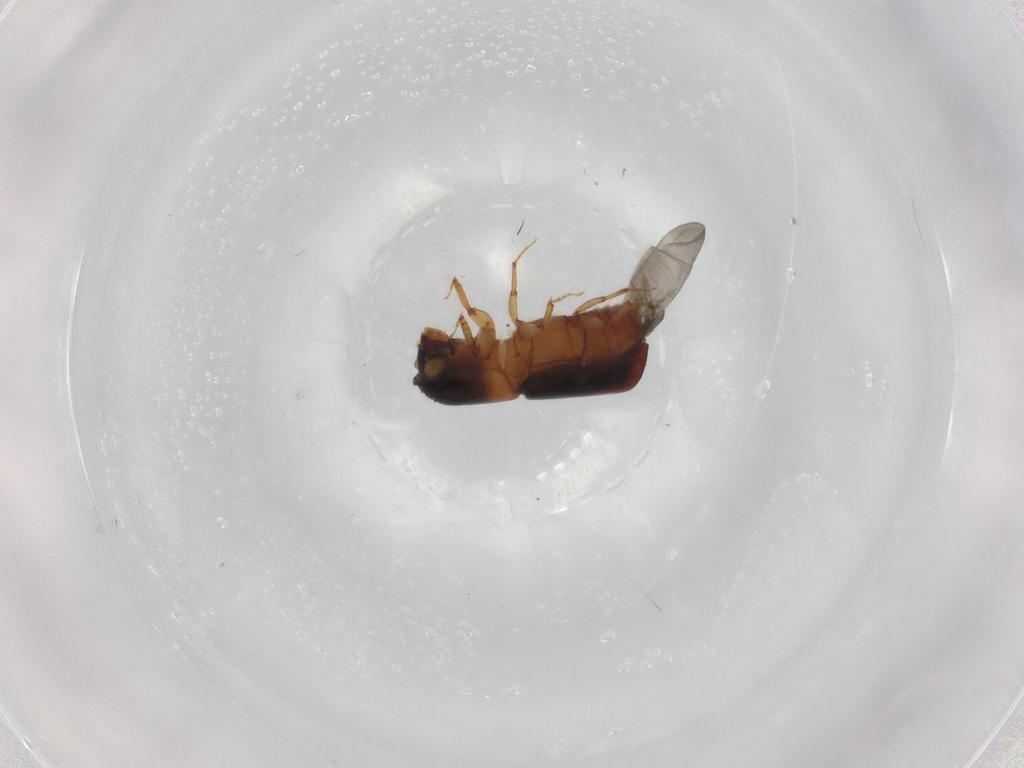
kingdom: Animalia
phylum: Arthropoda
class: Insecta
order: Coleoptera
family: Curculionidae
